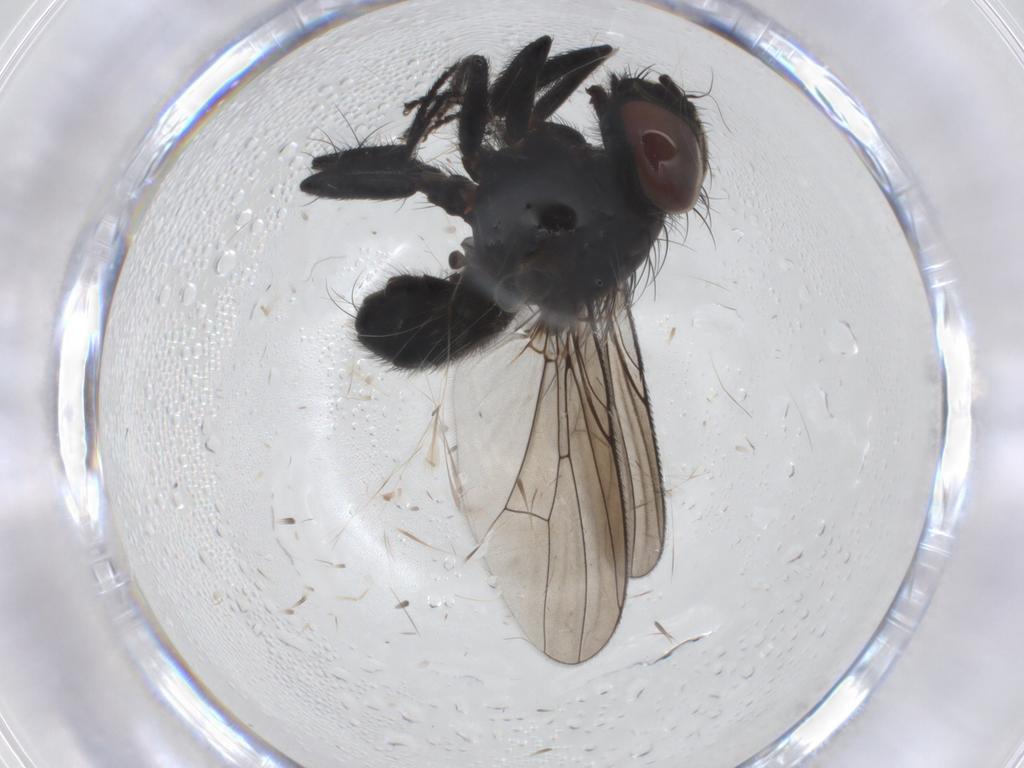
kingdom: Animalia
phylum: Arthropoda
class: Insecta
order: Diptera
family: Muscidae
